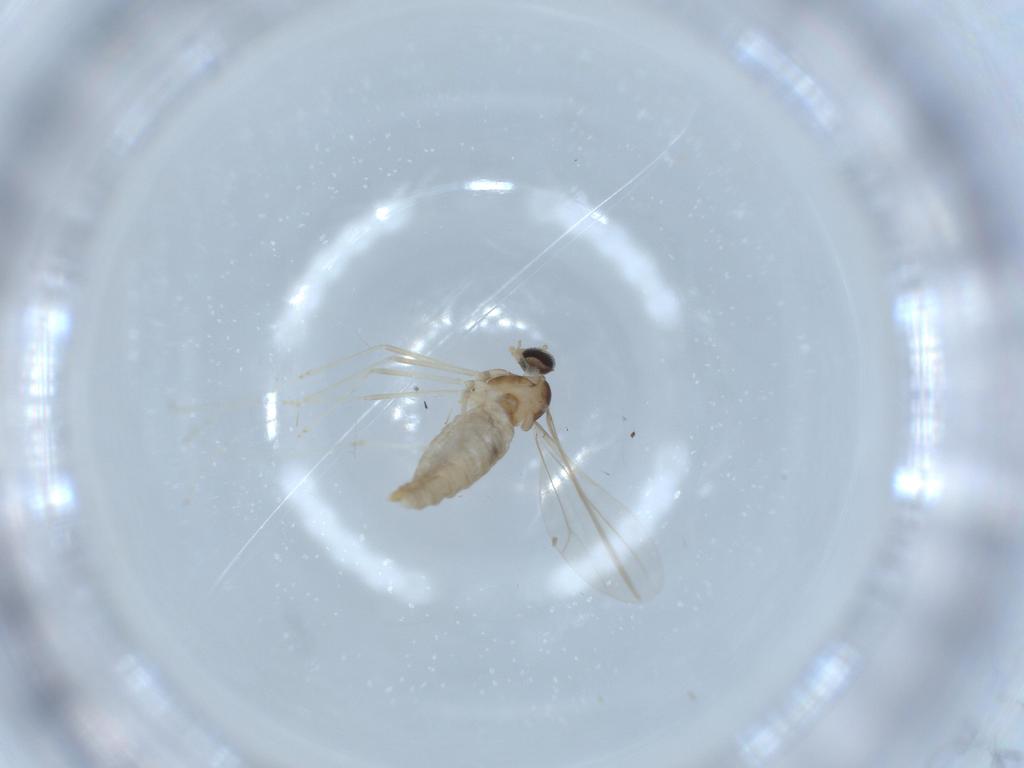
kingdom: Animalia
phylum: Arthropoda
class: Insecta
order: Diptera
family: Cecidomyiidae
